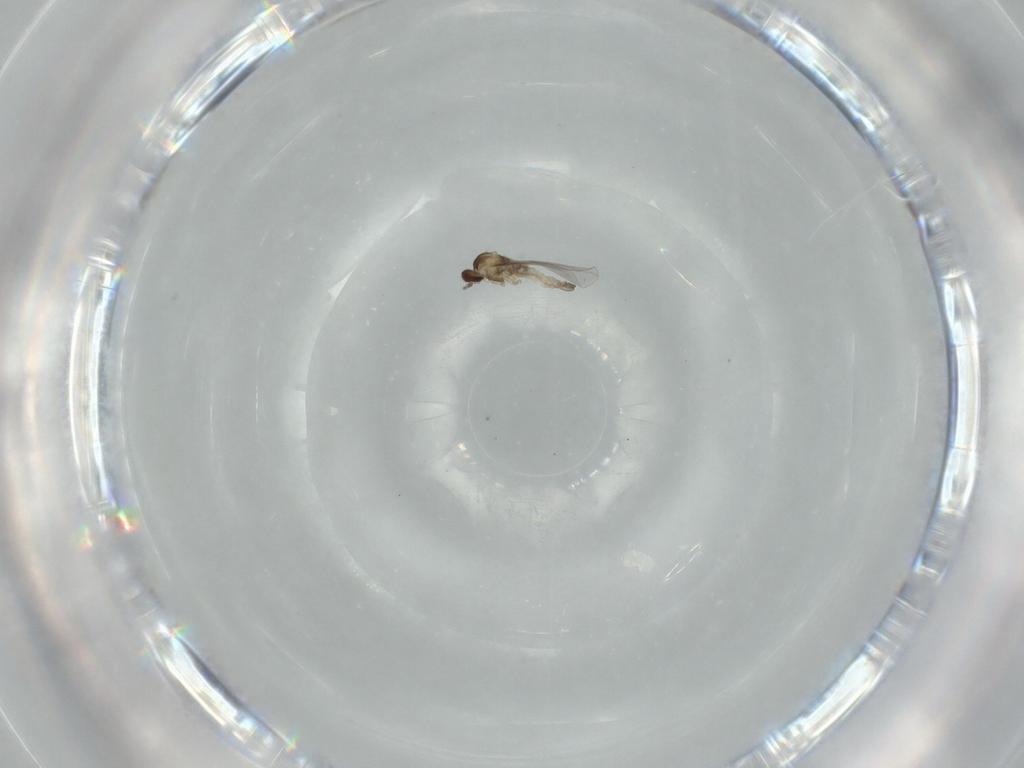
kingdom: Animalia
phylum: Arthropoda
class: Insecta
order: Diptera
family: Cecidomyiidae
